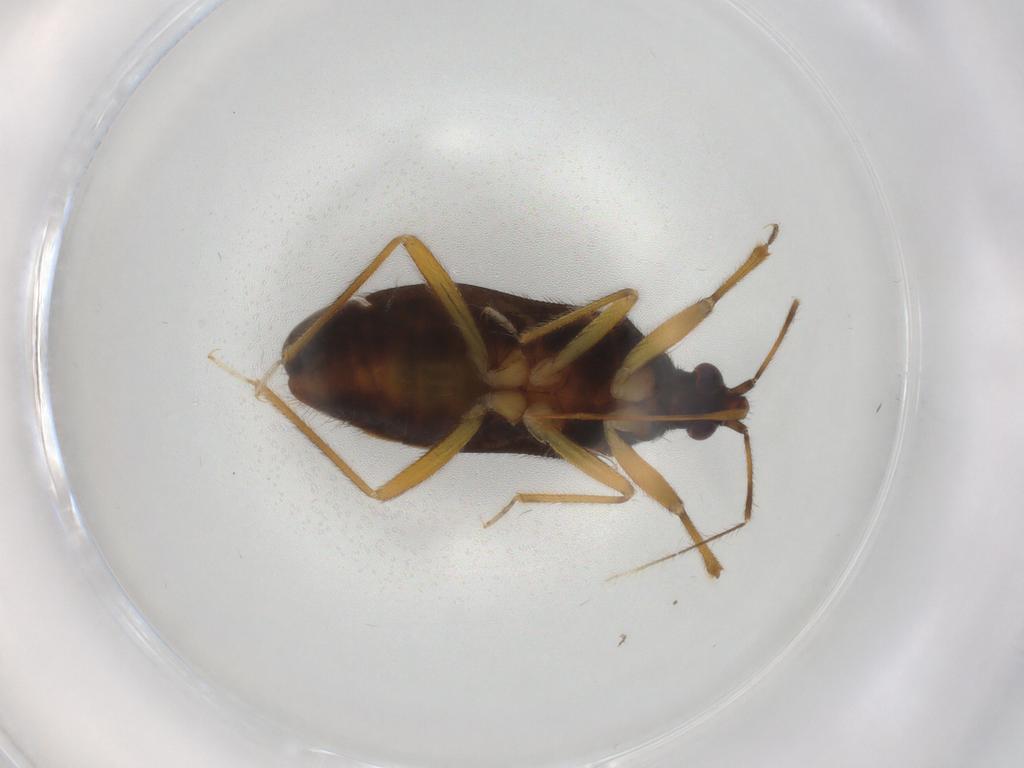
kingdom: Animalia
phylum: Arthropoda
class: Insecta
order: Hemiptera
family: Anthocoridae
